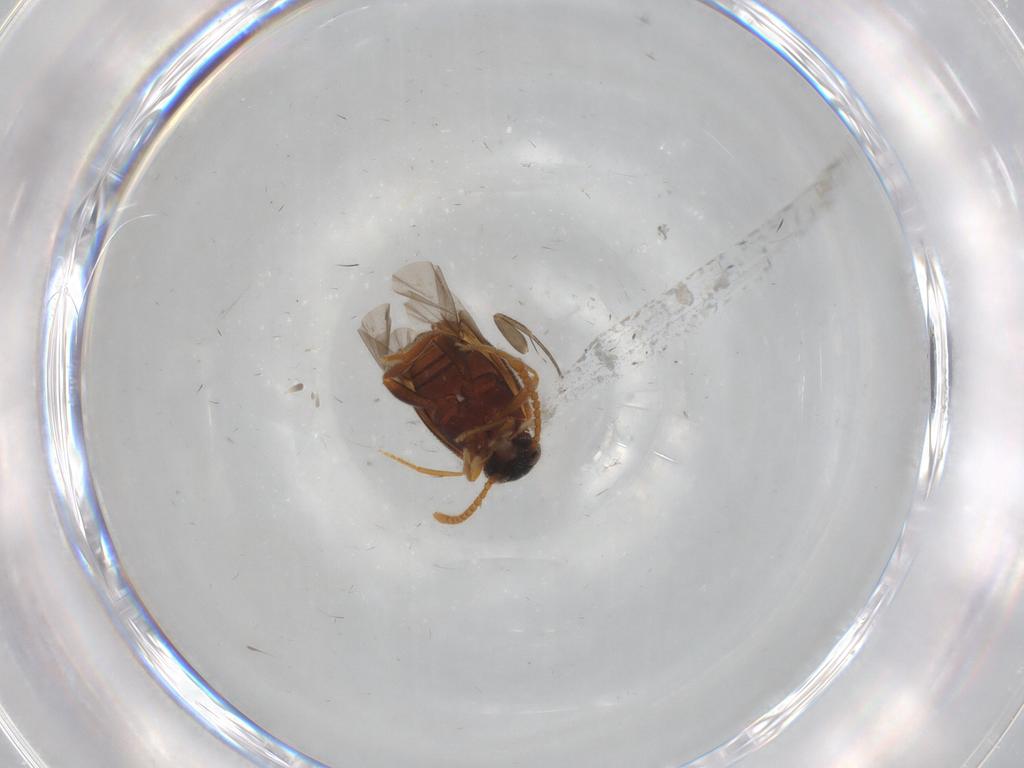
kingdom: Animalia
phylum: Arthropoda
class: Insecta
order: Coleoptera
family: Aderidae
